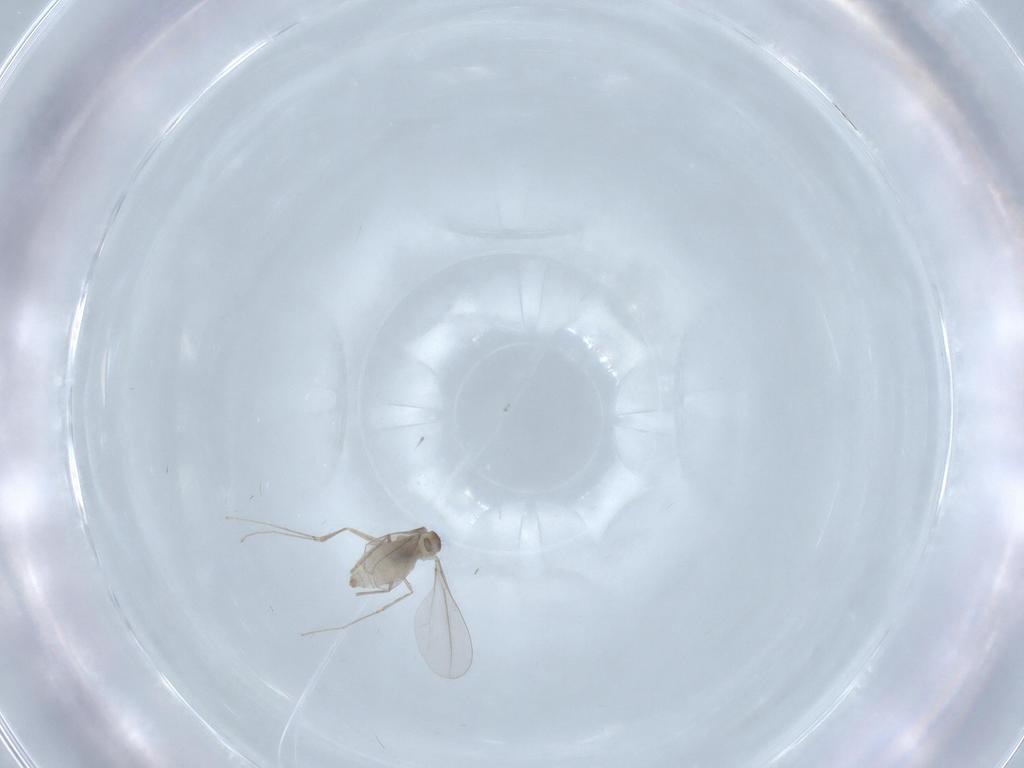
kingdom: Animalia
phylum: Arthropoda
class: Insecta
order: Diptera
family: Cecidomyiidae
